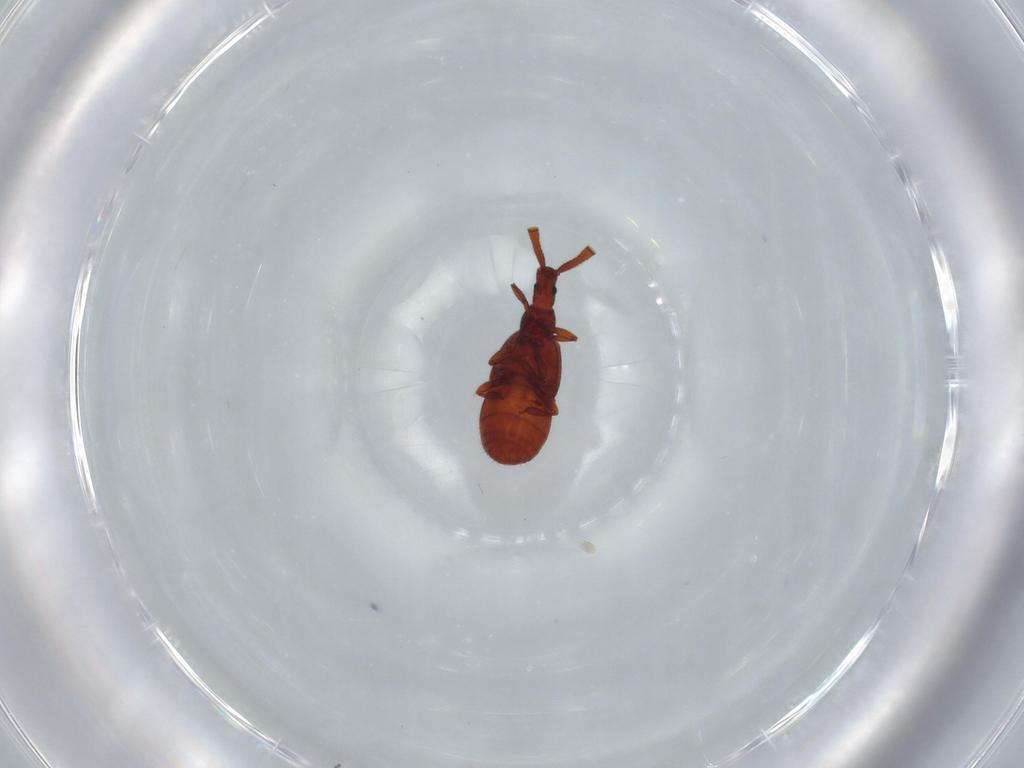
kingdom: Animalia
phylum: Arthropoda
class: Insecta
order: Coleoptera
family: Staphylinidae
